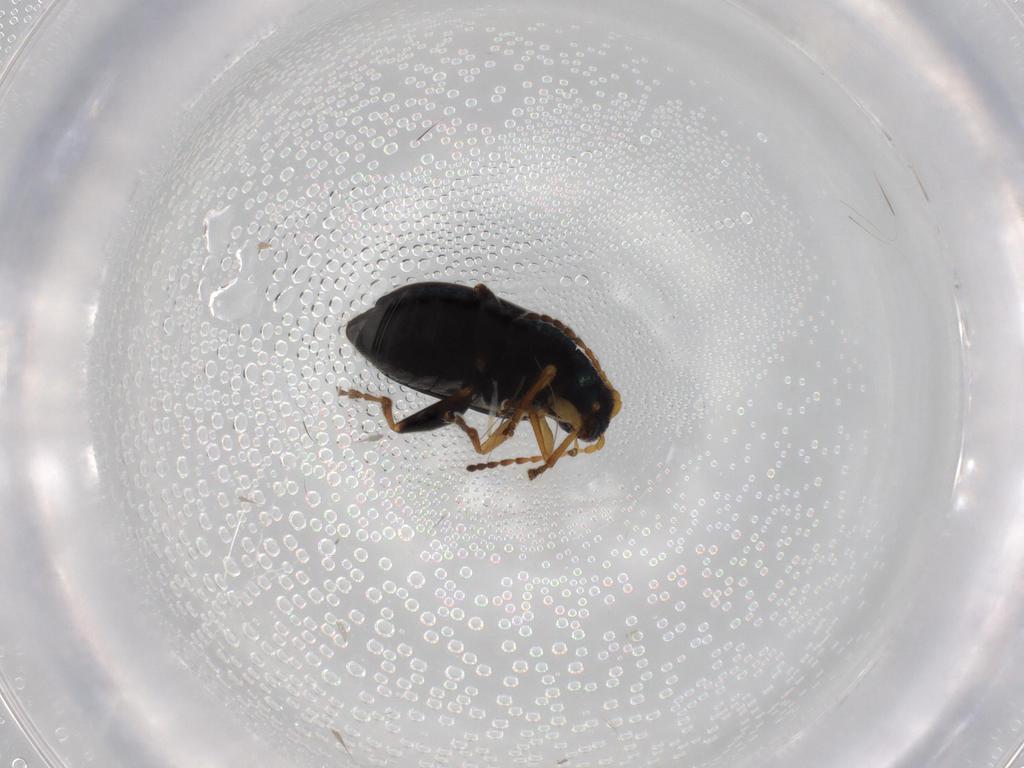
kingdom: Animalia
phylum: Arthropoda
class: Insecta
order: Coleoptera
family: Chrysomelidae
